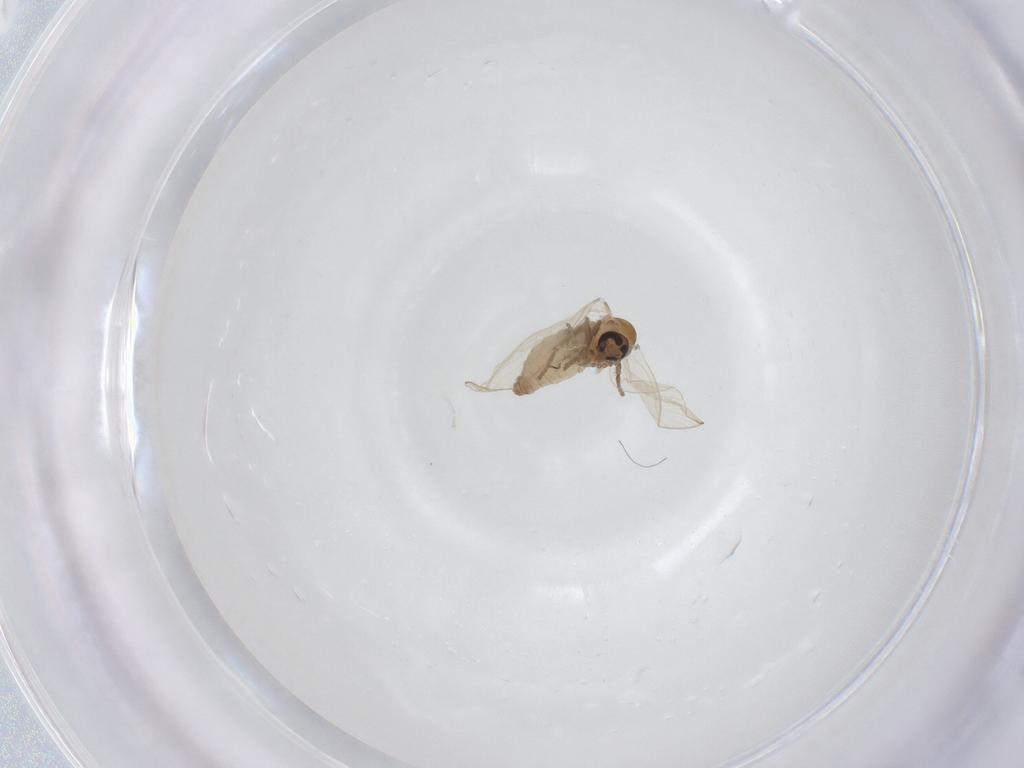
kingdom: Animalia
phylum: Arthropoda
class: Insecta
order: Diptera
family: Psychodidae
